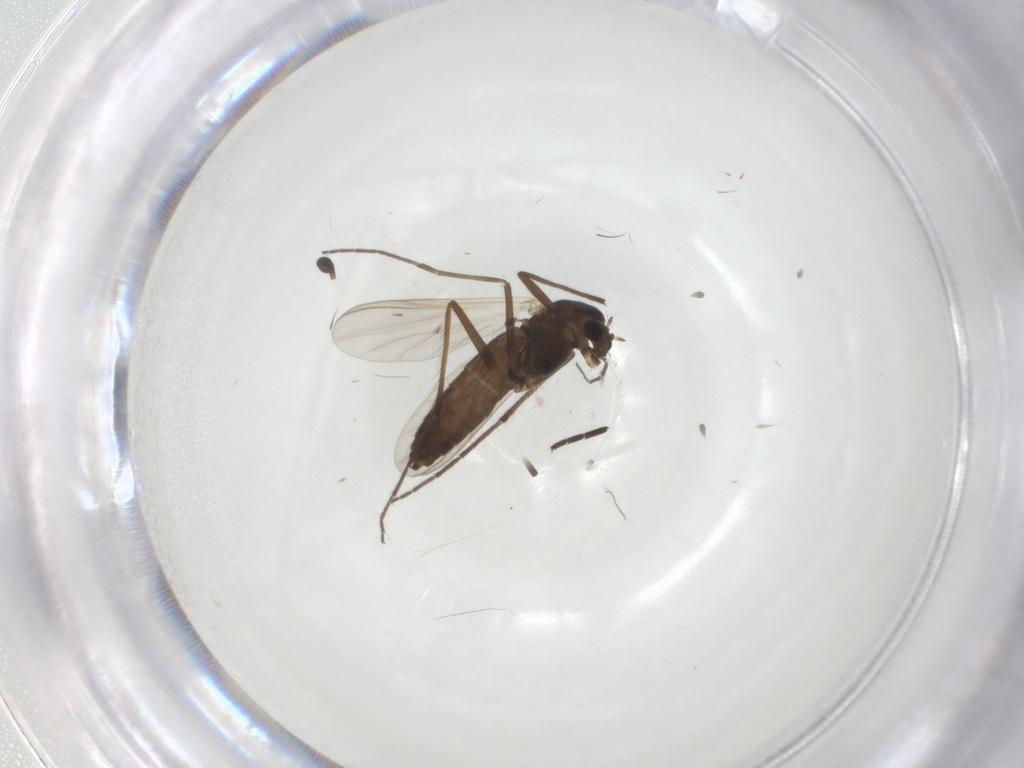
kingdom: Animalia
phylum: Arthropoda
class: Insecta
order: Diptera
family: Chironomidae
